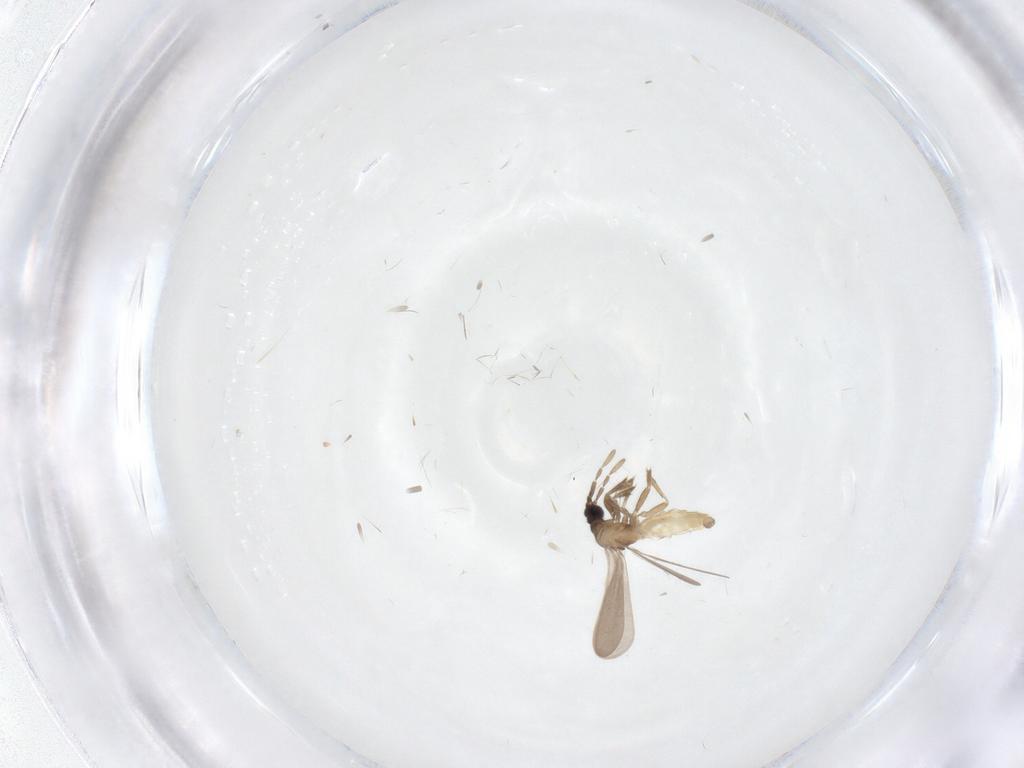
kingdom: Animalia
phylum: Arthropoda
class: Insecta
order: Hemiptera
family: Enicocephalidae
